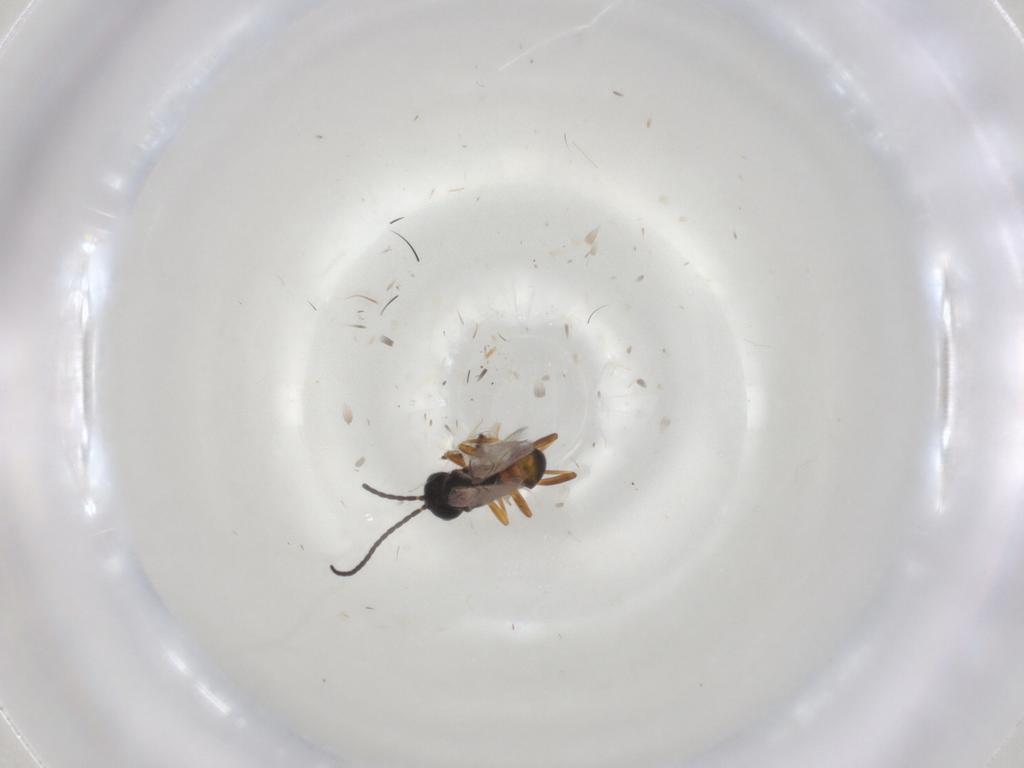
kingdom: Animalia
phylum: Arthropoda
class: Insecta
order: Hymenoptera
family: Braconidae
